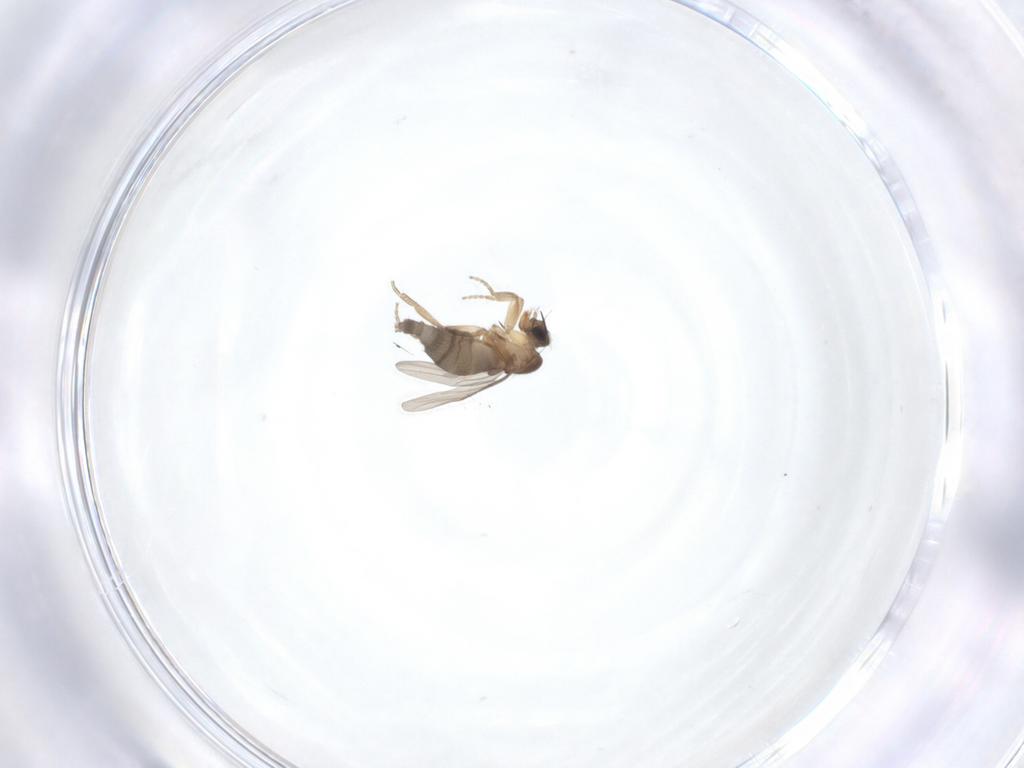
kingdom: Animalia
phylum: Arthropoda
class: Insecta
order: Diptera
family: Phoridae
